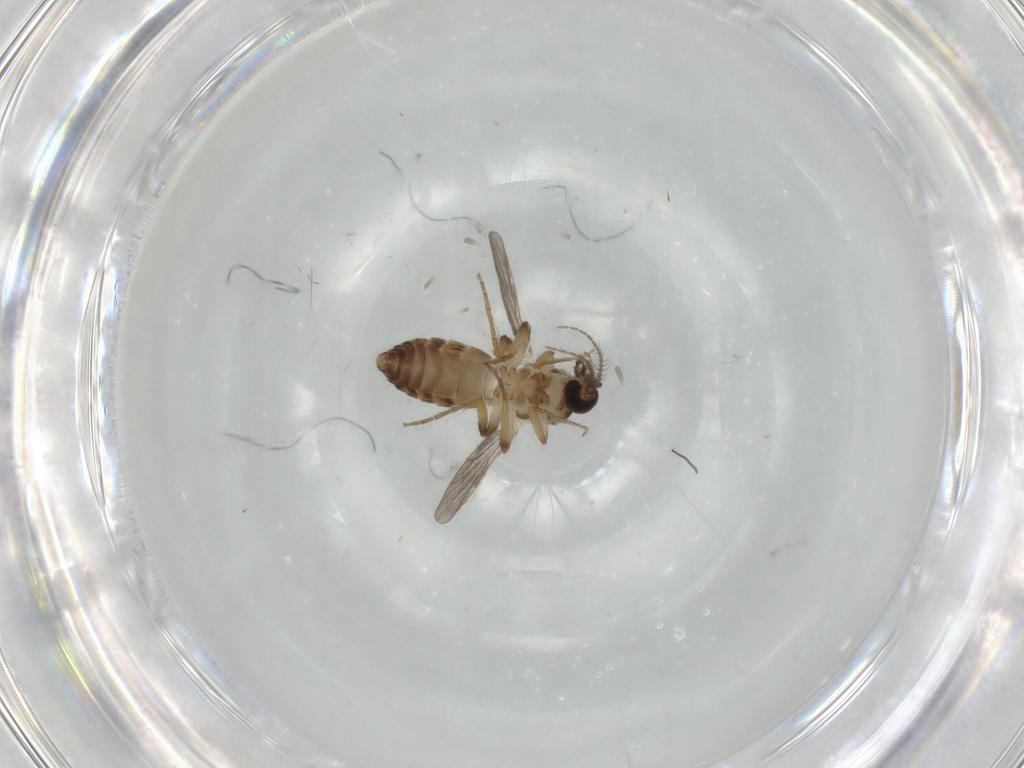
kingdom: Animalia
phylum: Arthropoda
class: Insecta
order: Diptera
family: Ceratopogonidae
